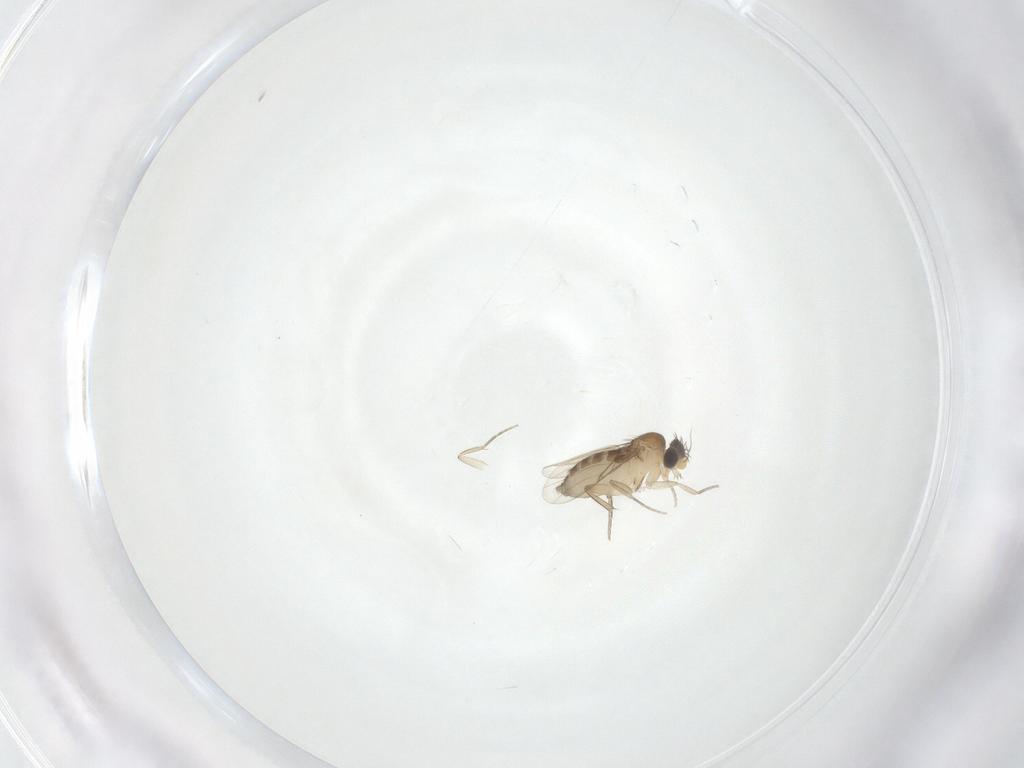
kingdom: Animalia
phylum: Arthropoda
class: Insecta
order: Diptera
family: Phoridae
